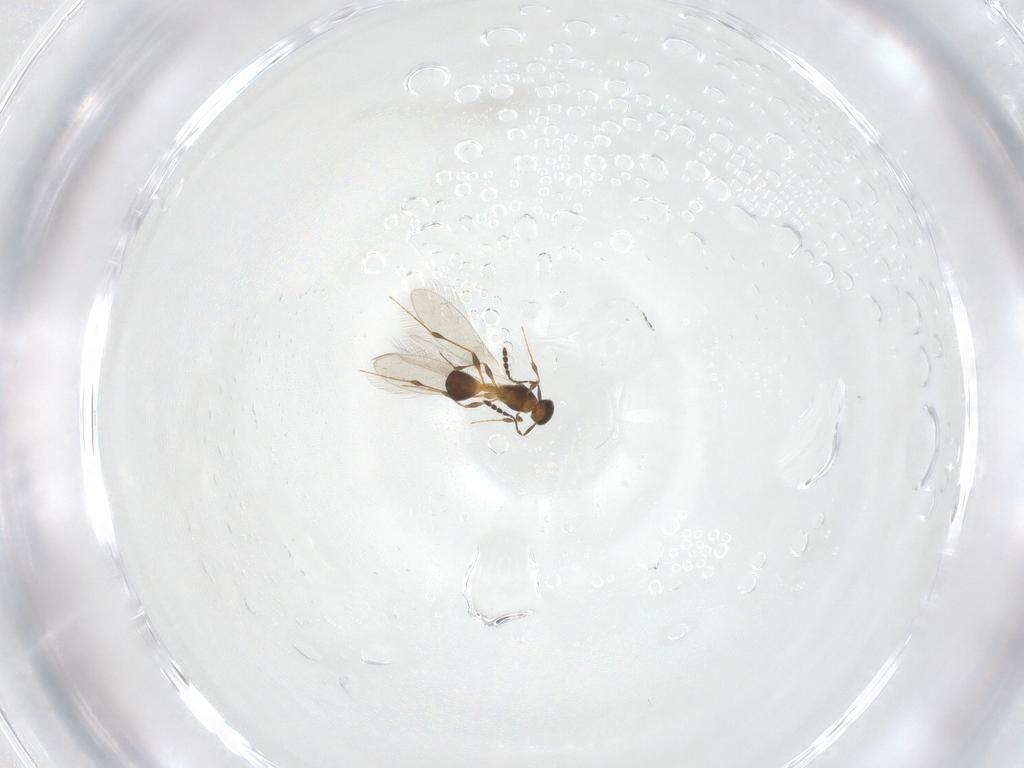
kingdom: Animalia
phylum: Arthropoda
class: Insecta
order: Hymenoptera
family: Platygastridae
